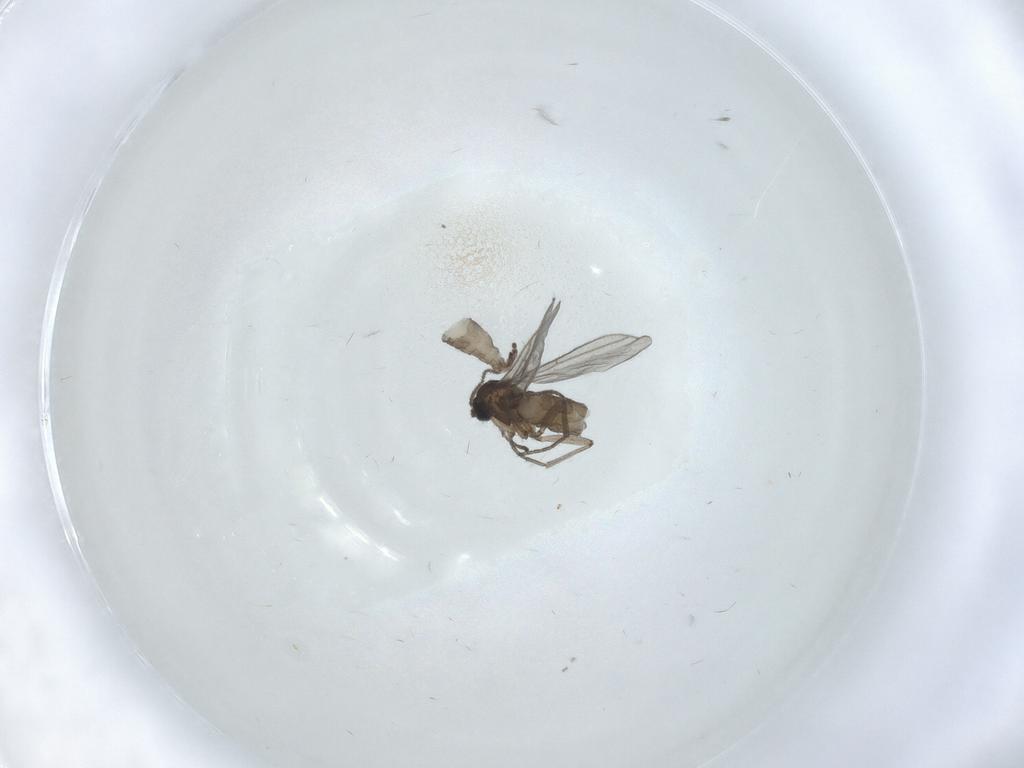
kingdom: Animalia
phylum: Arthropoda
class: Insecta
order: Diptera
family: Cecidomyiidae
